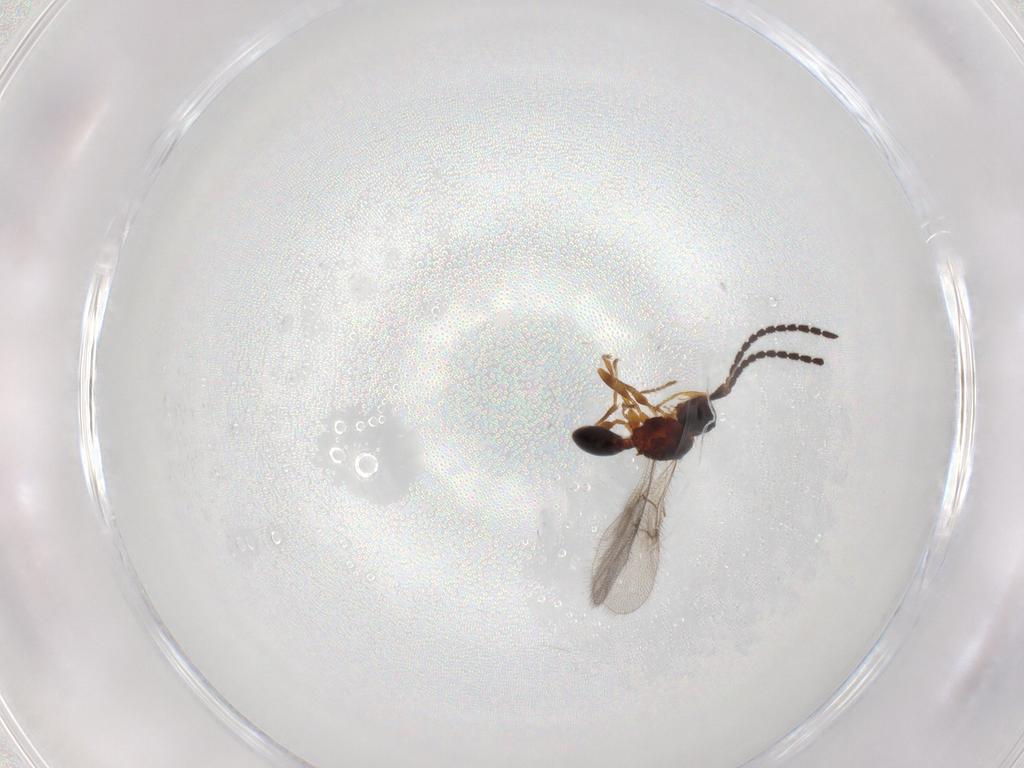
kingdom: Animalia
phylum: Arthropoda
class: Insecta
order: Hymenoptera
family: Diapriidae
